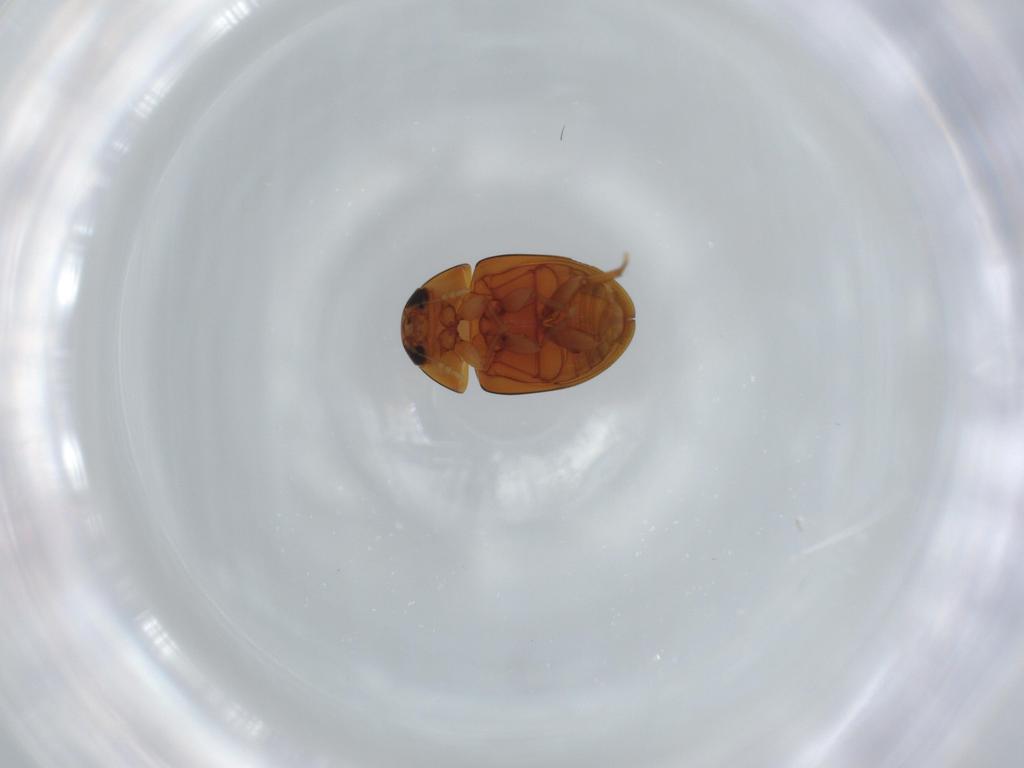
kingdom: Animalia
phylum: Arthropoda
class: Insecta
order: Coleoptera
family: Phalacridae
